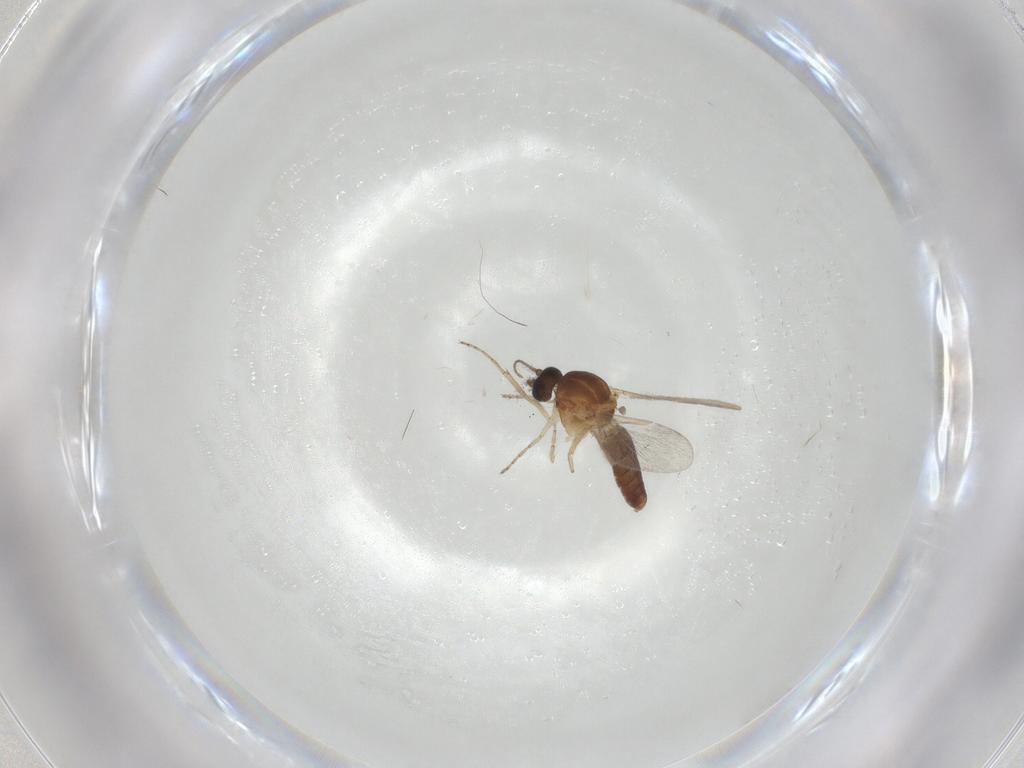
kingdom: Animalia
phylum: Arthropoda
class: Insecta
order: Diptera
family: Ceratopogonidae
